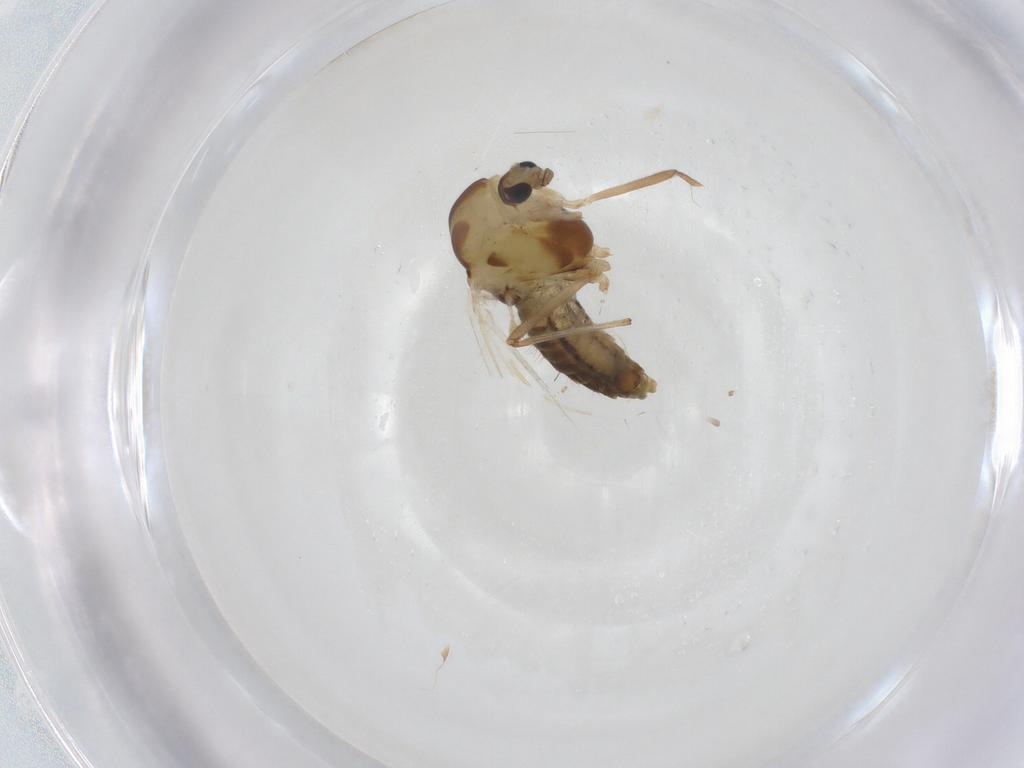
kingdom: Animalia
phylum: Arthropoda
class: Insecta
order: Diptera
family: Chironomidae
